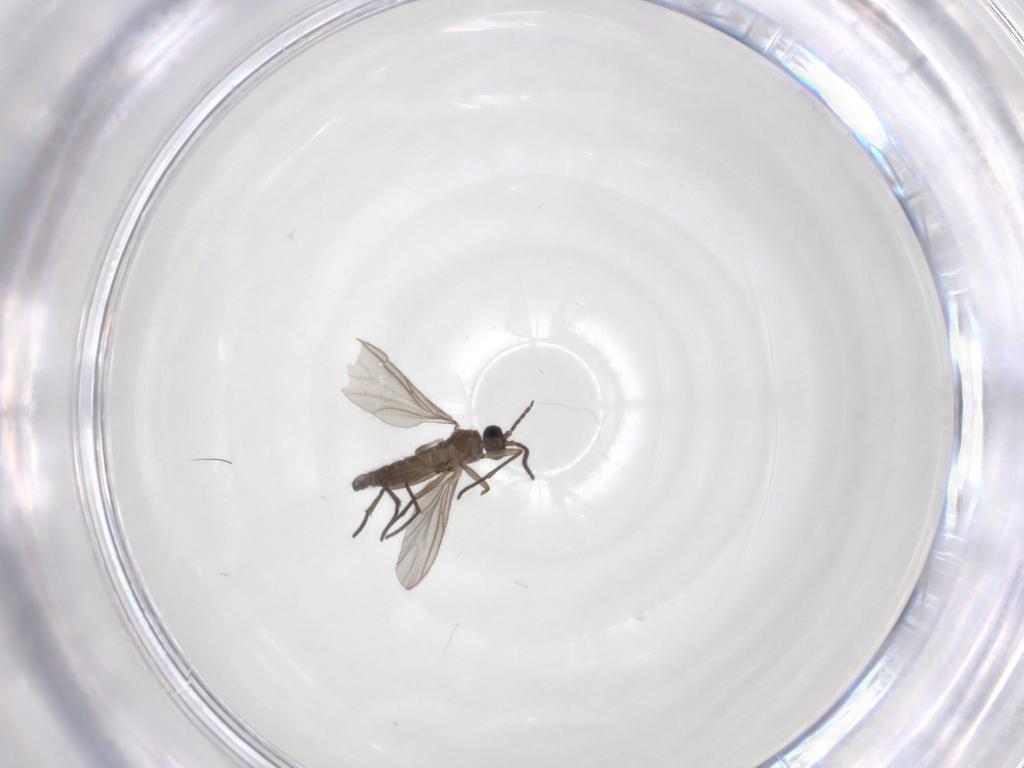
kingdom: Animalia
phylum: Arthropoda
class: Insecta
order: Diptera
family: Sciaridae
